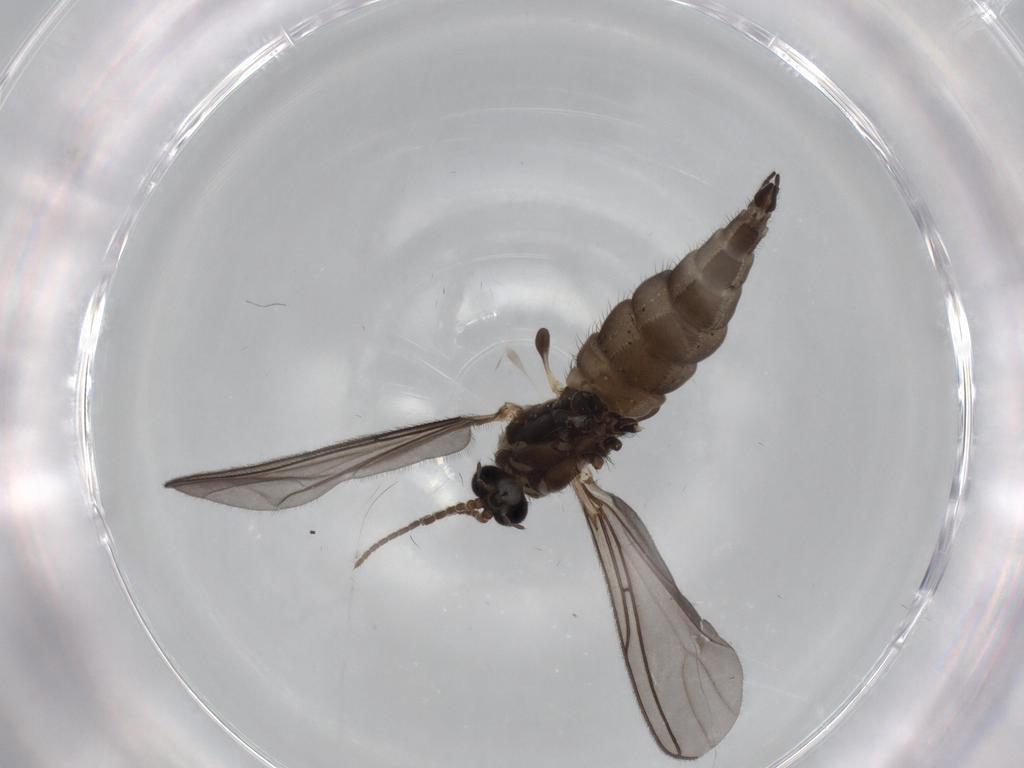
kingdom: Animalia
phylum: Arthropoda
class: Insecta
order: Diptera
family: Sciaridae
